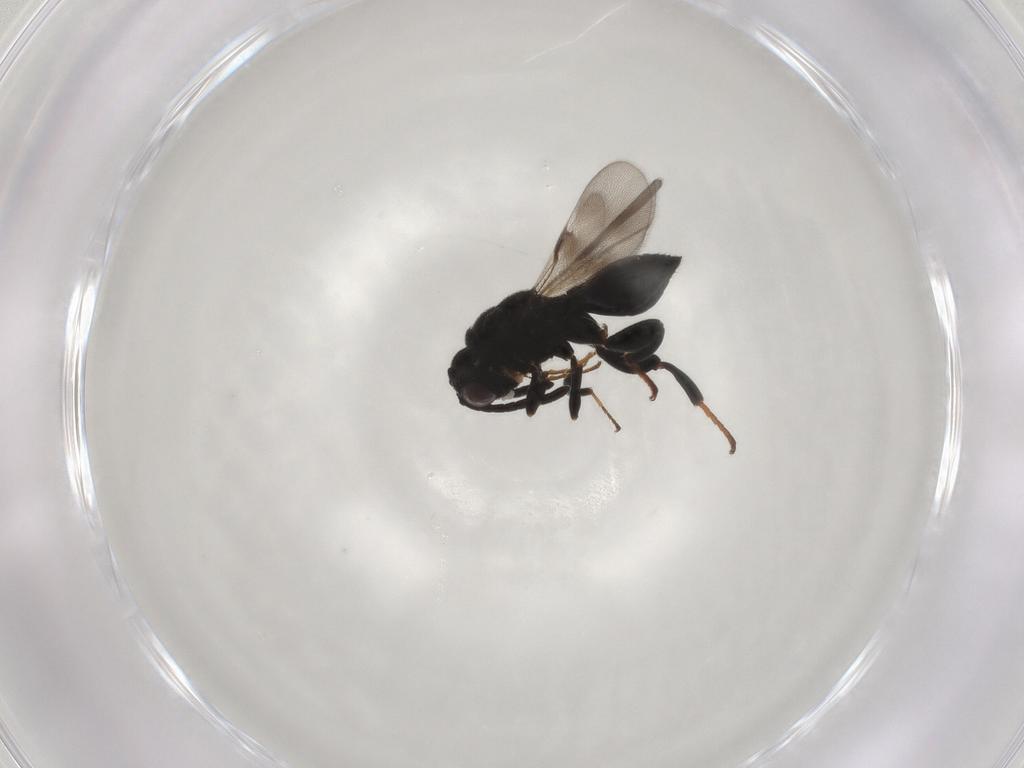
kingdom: Animalia
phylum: Arthropoda
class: Insecta
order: Hymenoptera
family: Chalcididae
